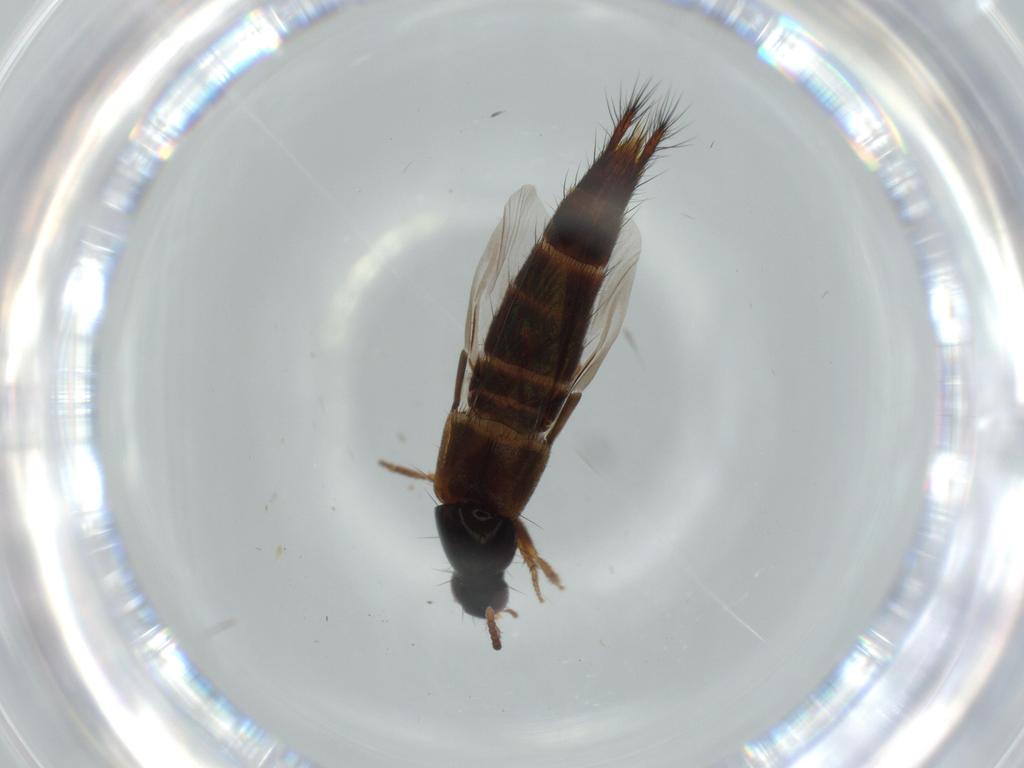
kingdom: Animalia
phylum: Arthropoda
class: Insecta
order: Coleoptera
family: Staphylinidae
